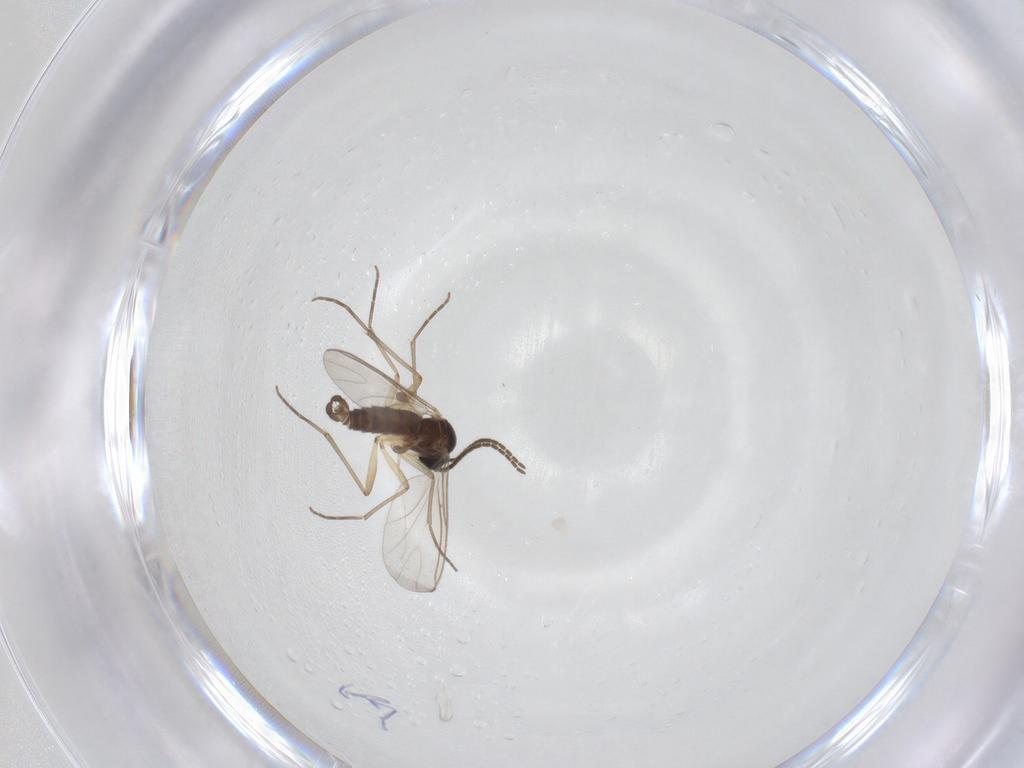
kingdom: Animalia
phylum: Arthropoda
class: Insecta
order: Diptera
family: Sciaridae
